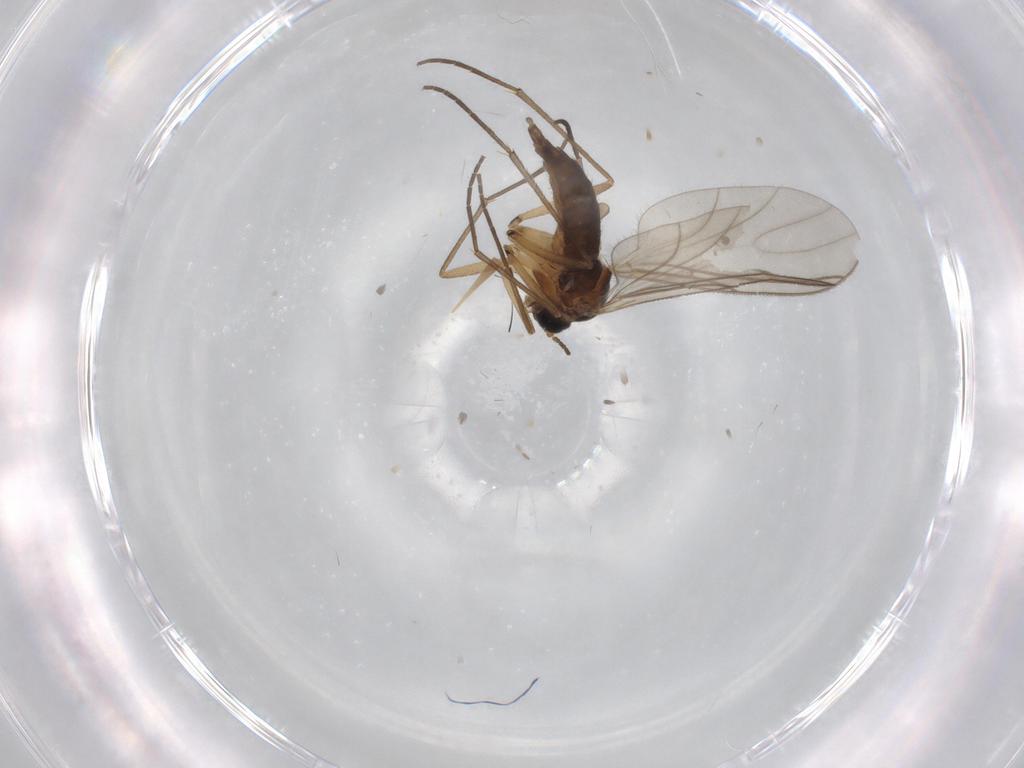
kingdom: Animalia
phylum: Arthropoda
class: Insecta
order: Diptera
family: Sciaridae
